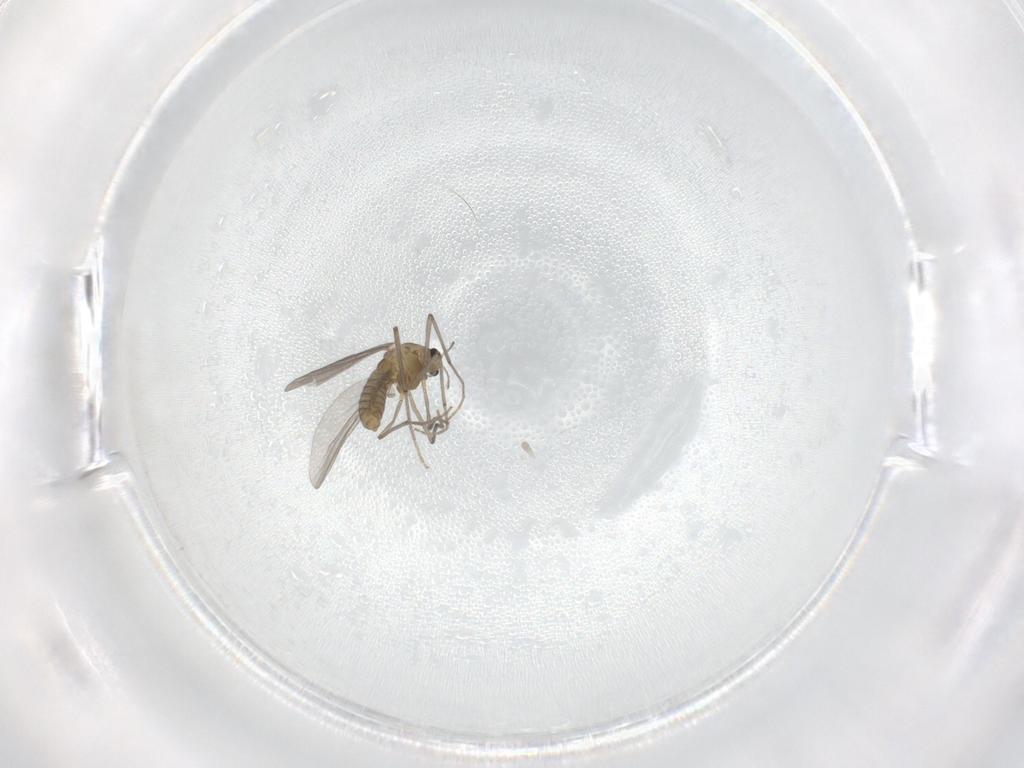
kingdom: Animalia
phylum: Arthropoda
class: Insecta
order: Diptera
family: Chironomidae
